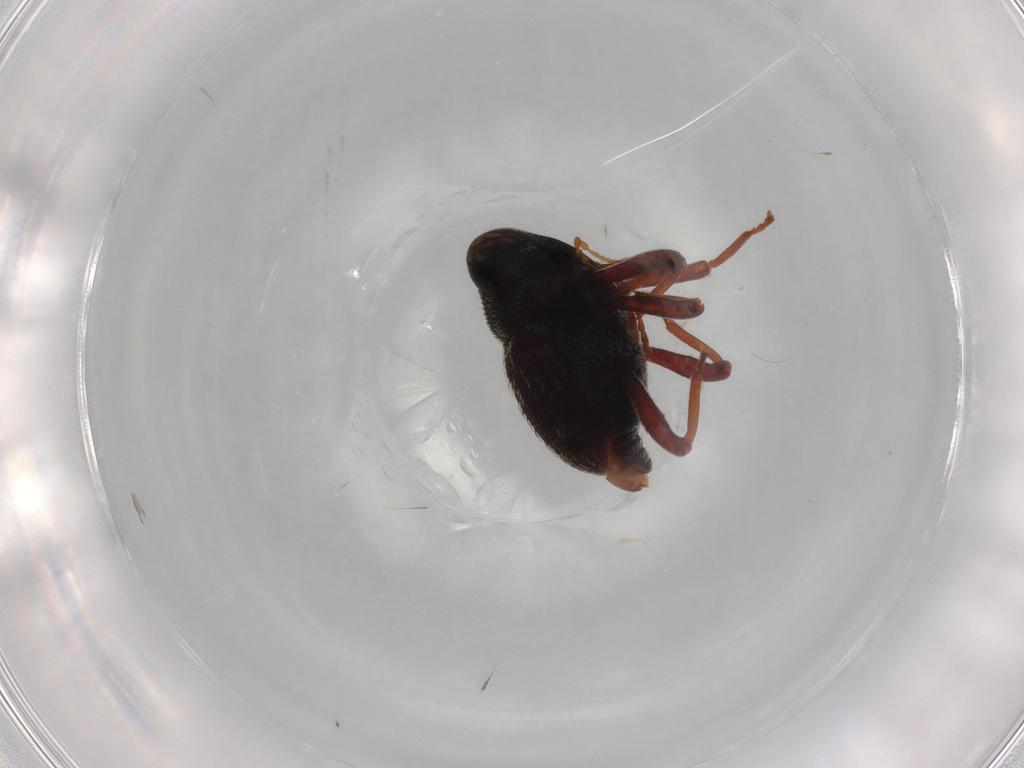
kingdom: Animalia
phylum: Arthropoda
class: Insecta
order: Coleoptera
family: Curculionidae
